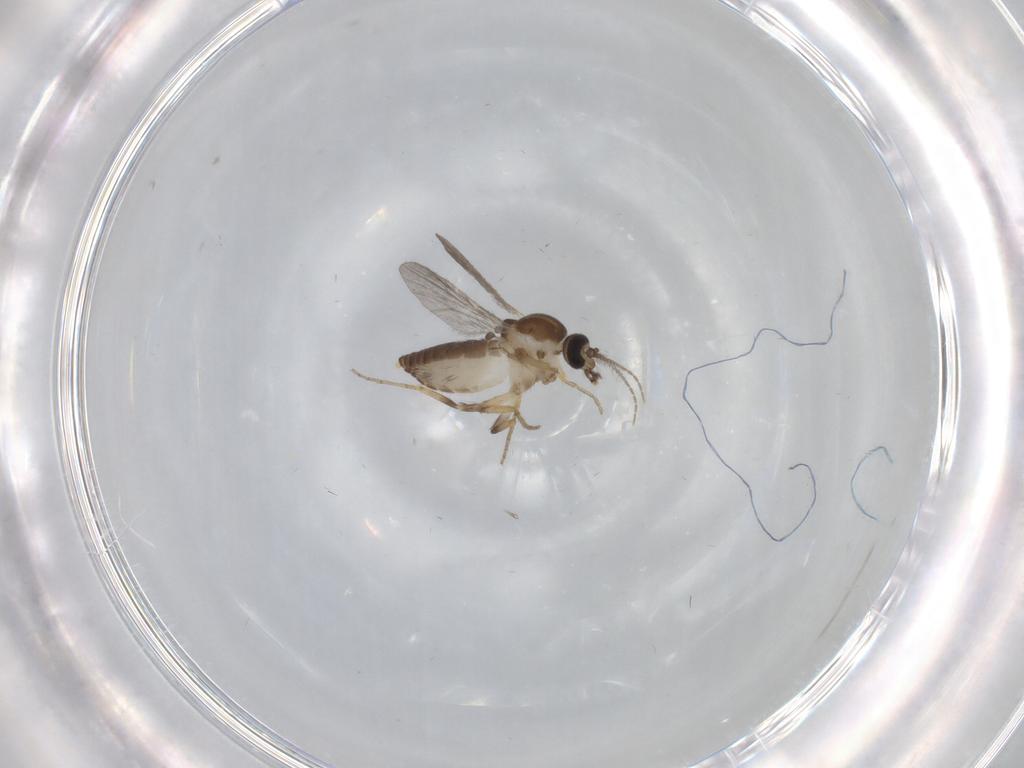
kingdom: Animalia
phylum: Arthropoda
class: Insecta
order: Diptera
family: Ceratopogonidae
